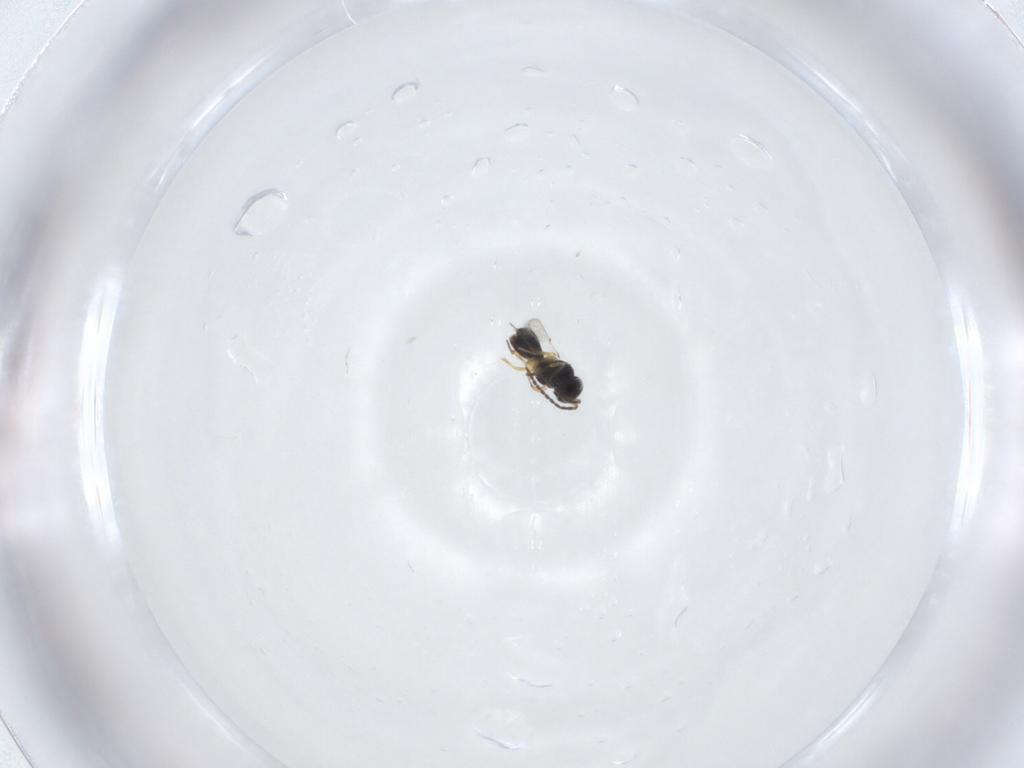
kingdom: Animalia
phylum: Arthropoda
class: Insecta
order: Hymenoptera
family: Scelionidae
